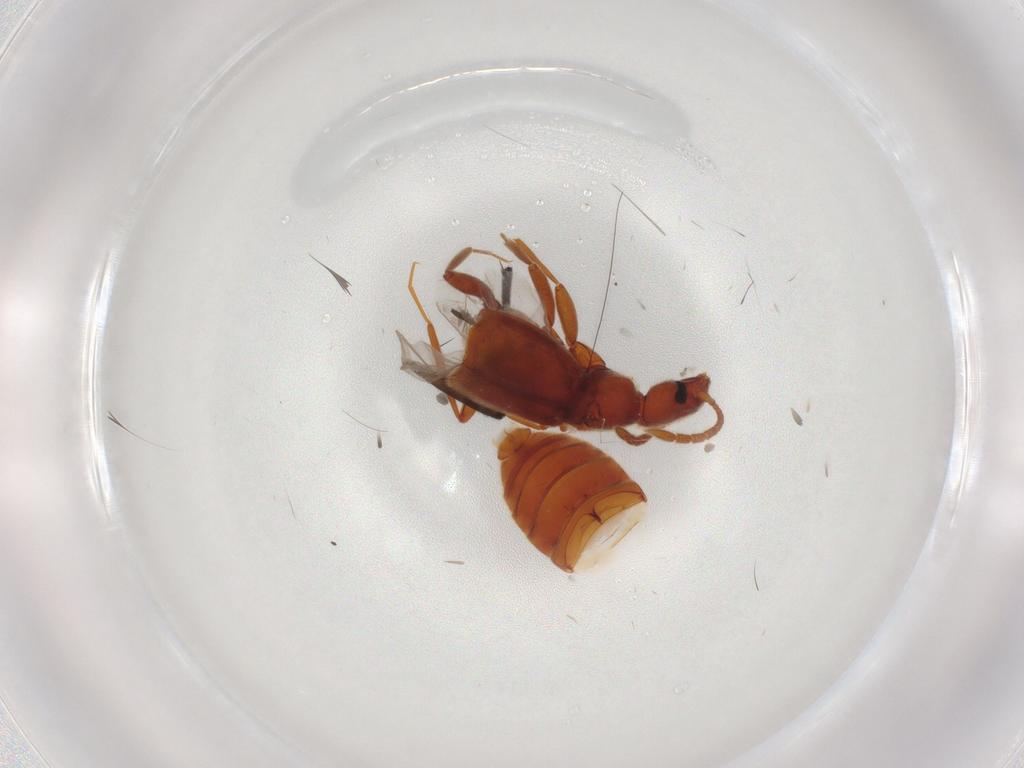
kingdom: Animalia
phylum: Arthropoda
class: Insecta
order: Coleoptera
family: Staphylinidae
